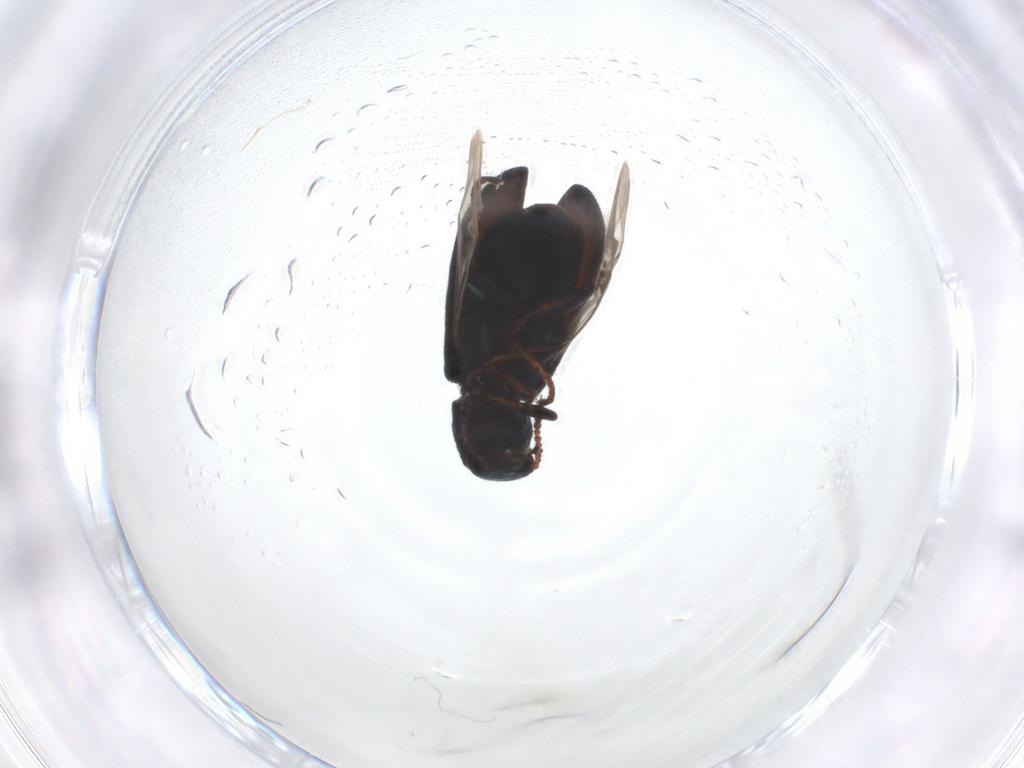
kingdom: Animalia
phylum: Arthropoda
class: Insecta
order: Coleoptera
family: Melyridae
